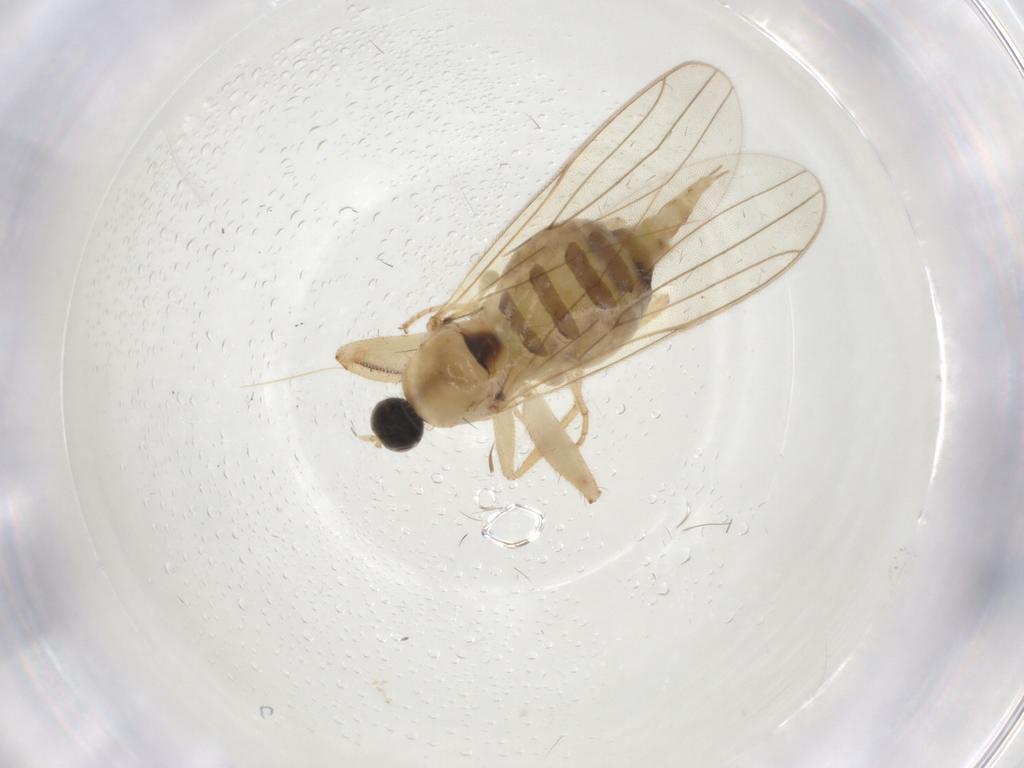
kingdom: Animalia
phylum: Arthropoda
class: Insecta
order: Diptera
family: Hybotidae
